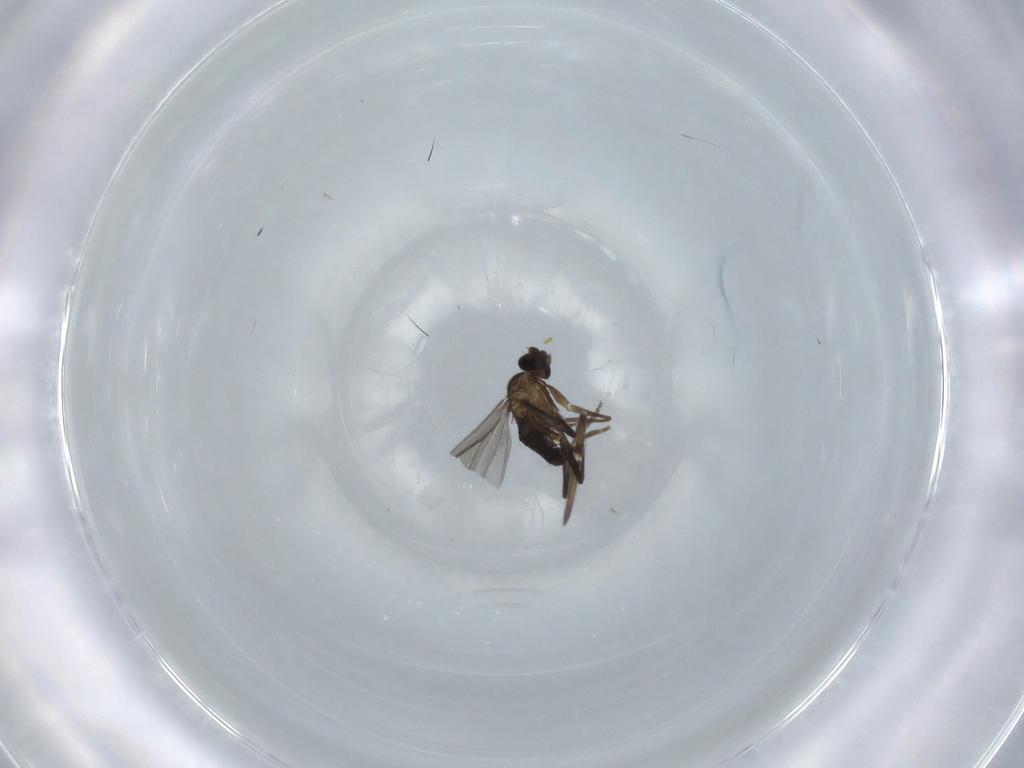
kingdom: Animalia
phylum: Arthropoda
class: Insecta
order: Diptera
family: Phoridae
